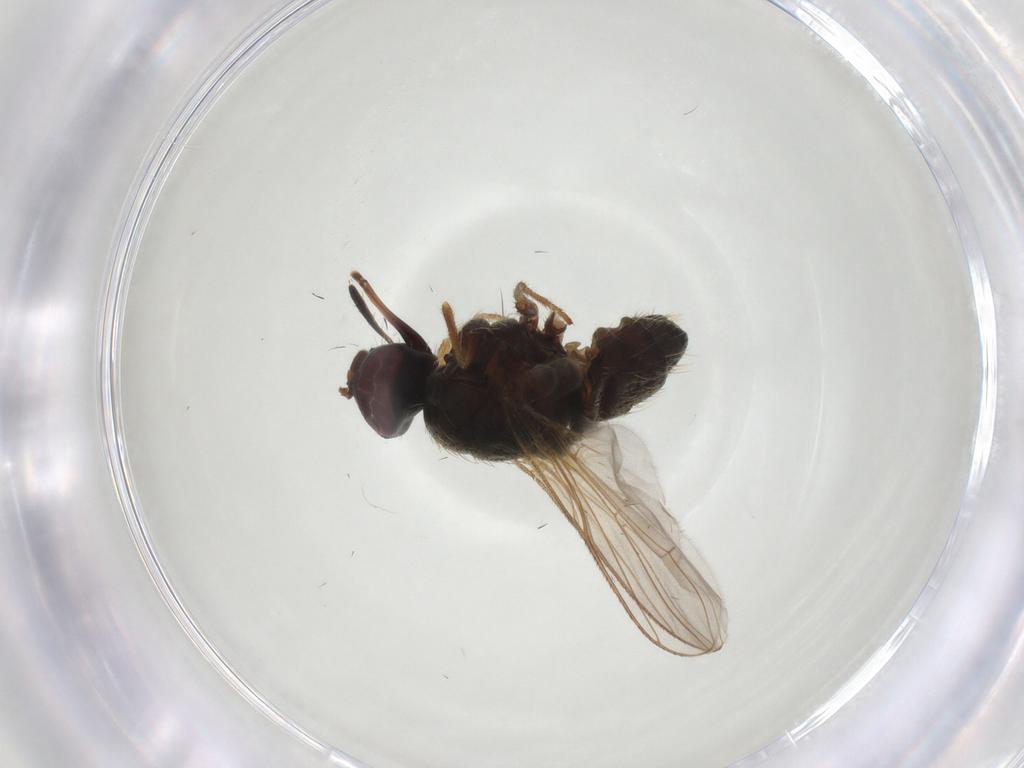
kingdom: Animalia
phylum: Arthropoda
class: Insecta
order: Diptera
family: Muscidae
